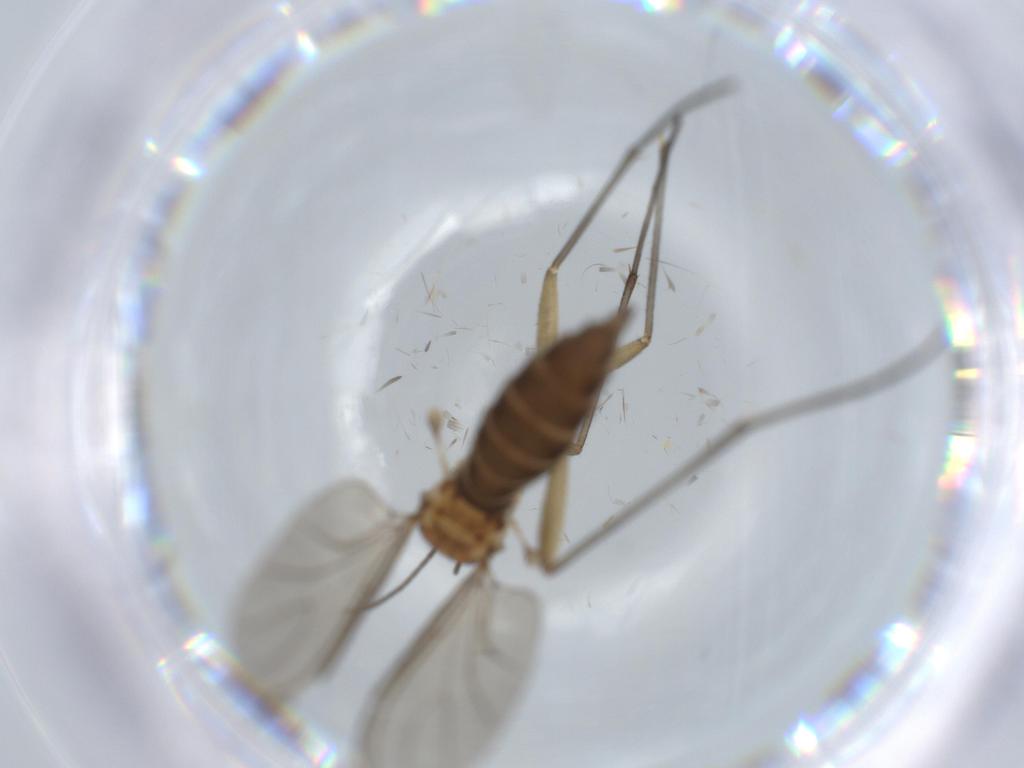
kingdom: Animalia
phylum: Arthropoda
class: Insecta
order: Diptera
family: Sciaridae
